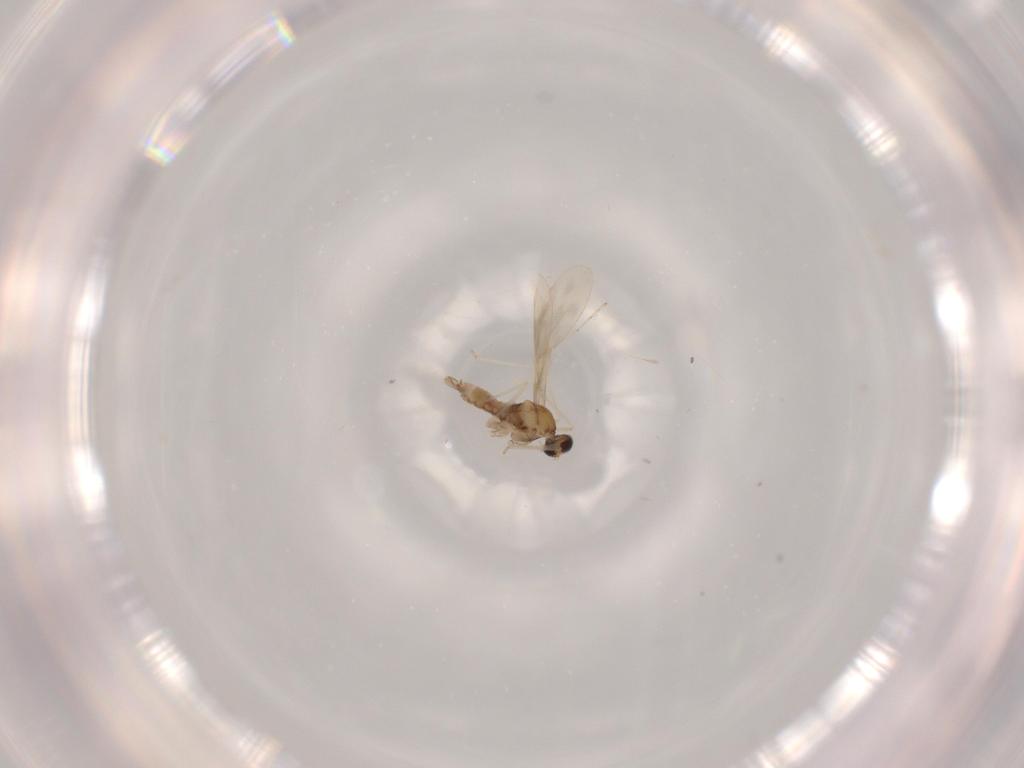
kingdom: Animalia
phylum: Arthropoda
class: Insecta
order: Diptera
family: Cecidomyiidae
